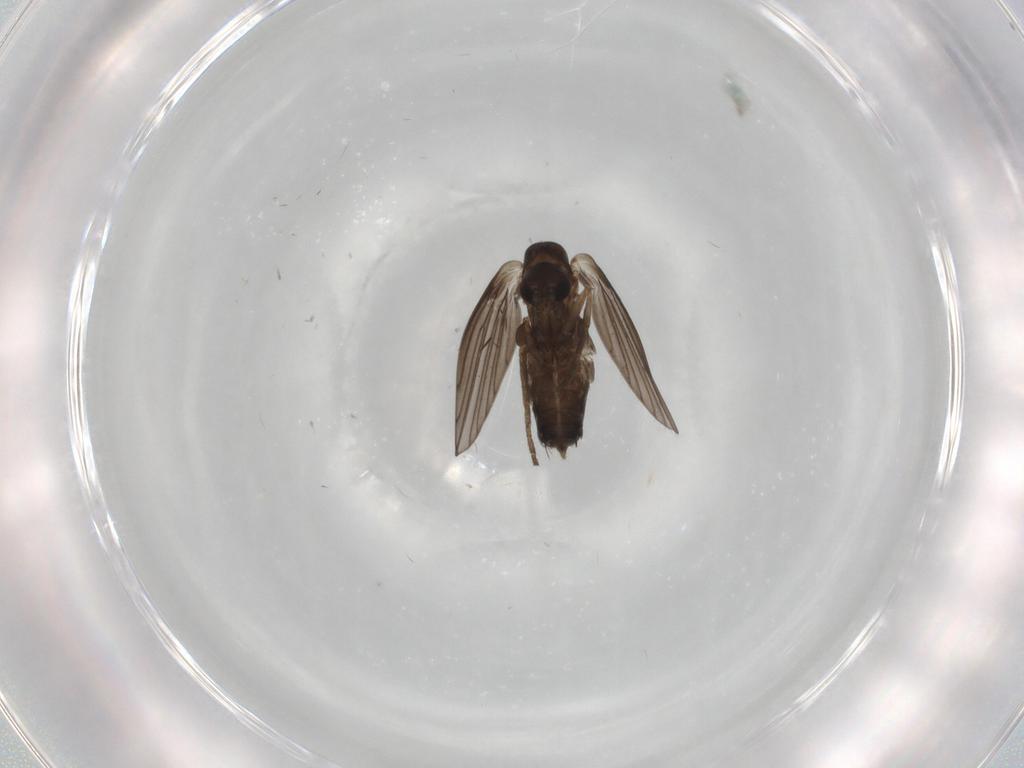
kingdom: Animalia
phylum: Arthropoda
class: Insecta
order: Diptera
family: Chironomidae
